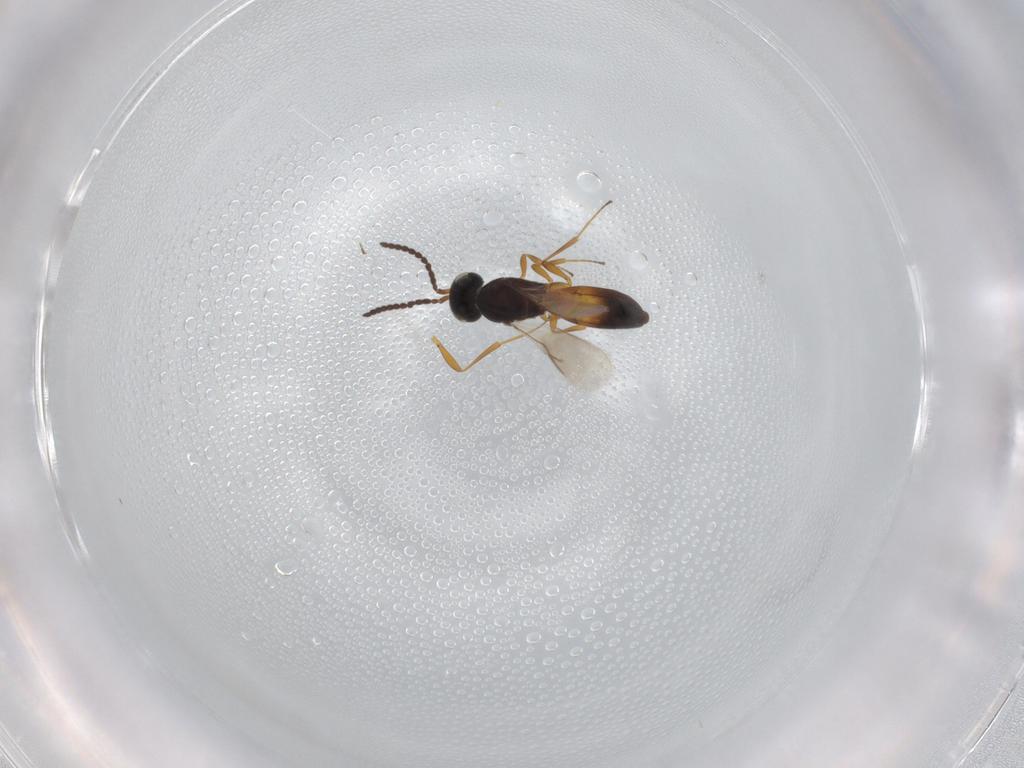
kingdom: Animalia
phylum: Arthropoda
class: Insecta
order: Hymenoptera
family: Scelionidae
